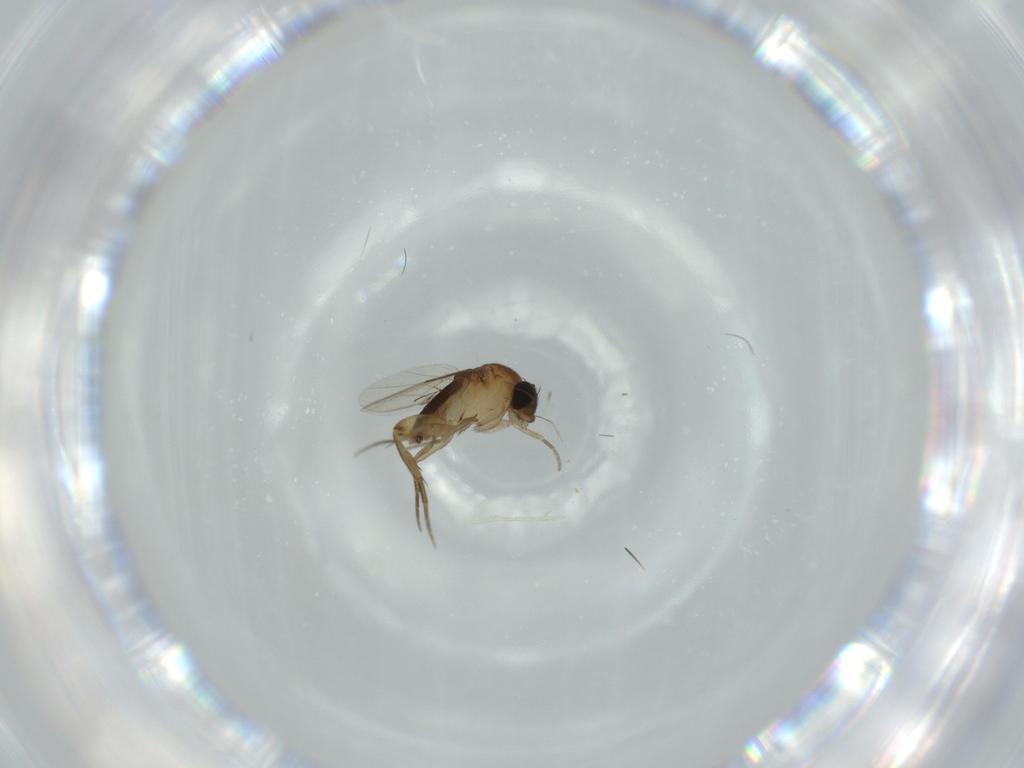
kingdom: Animalia
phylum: Arthropoda
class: Insecta
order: Diptera
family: Phoridae
